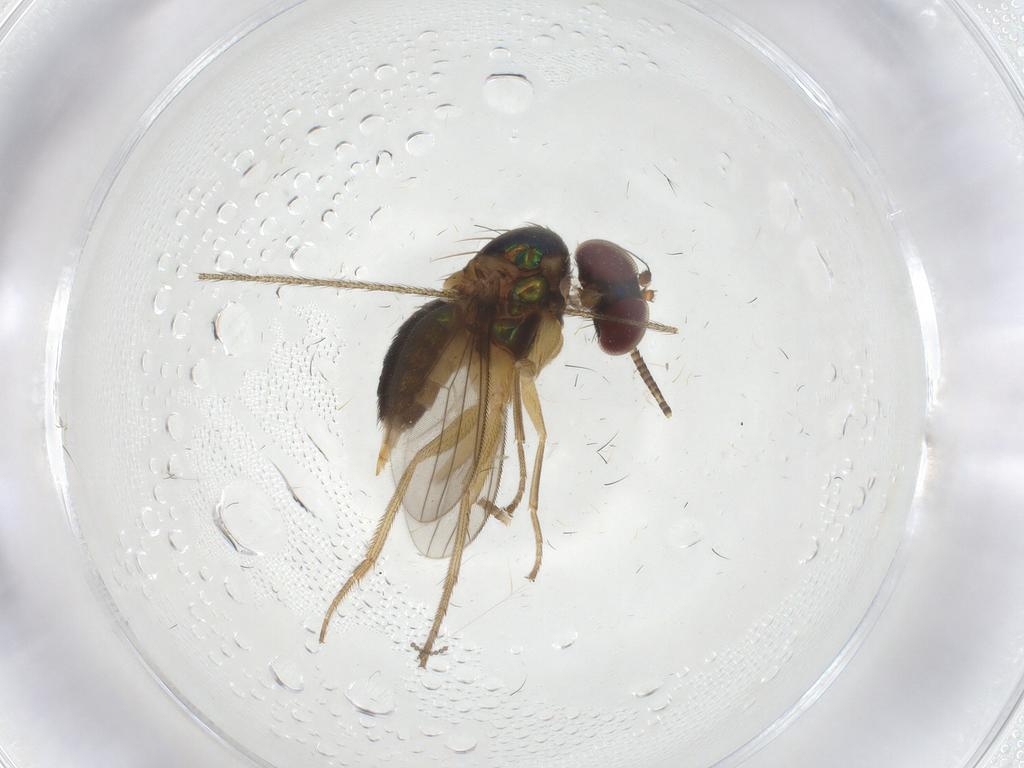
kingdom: Animalia
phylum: Arthropoda
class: Insecta
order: Diptera
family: Dolichopodidae
